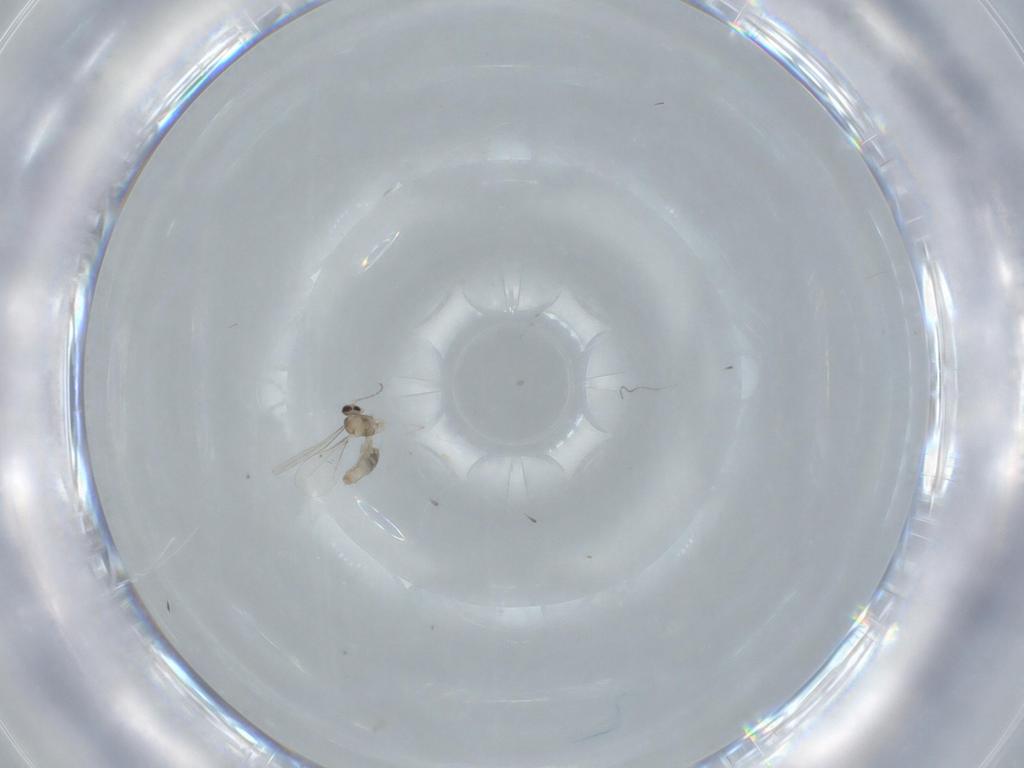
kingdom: Animalia
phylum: Arthropoda
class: Insecta
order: Diptera
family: Cecidomyiidae
